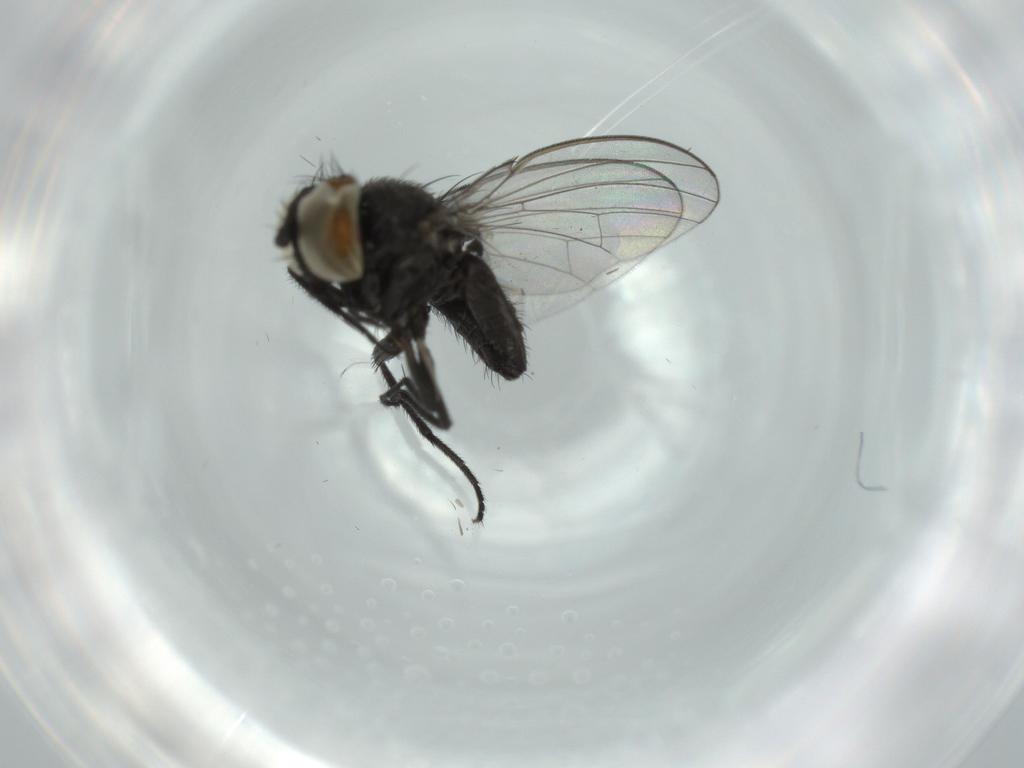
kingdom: Animalia
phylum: Arthropoda
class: Insecta
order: Diptera
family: Milichiidae
